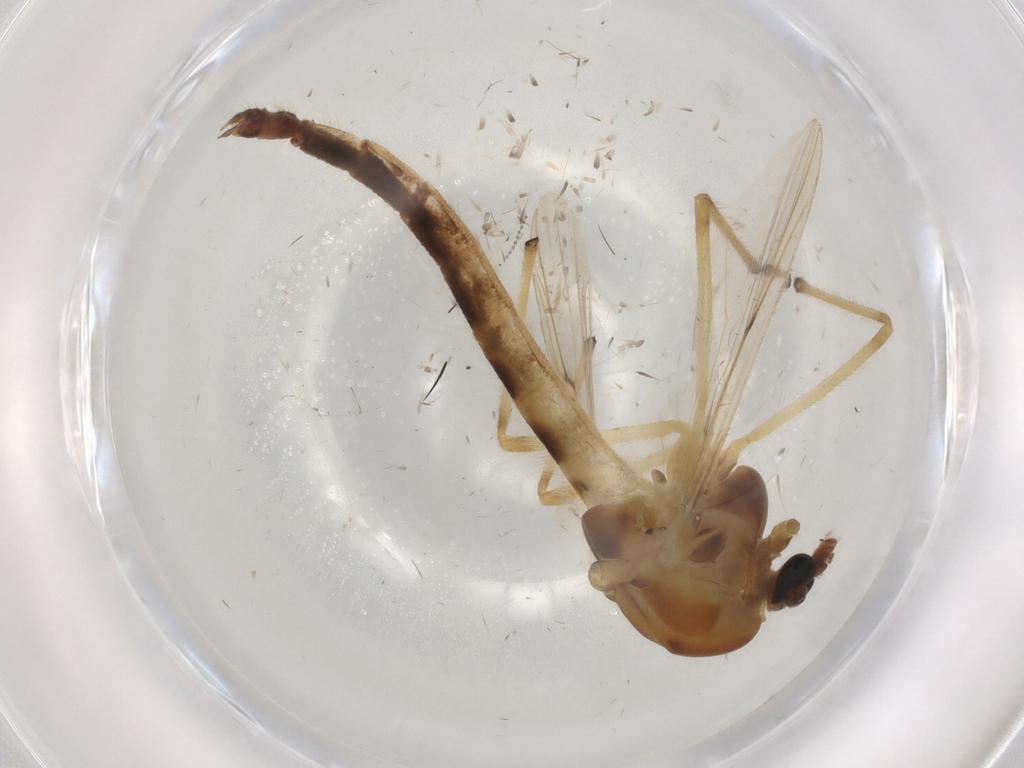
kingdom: Animalia
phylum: Arthropoda
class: Insecta
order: Diptera
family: Chironomidae
